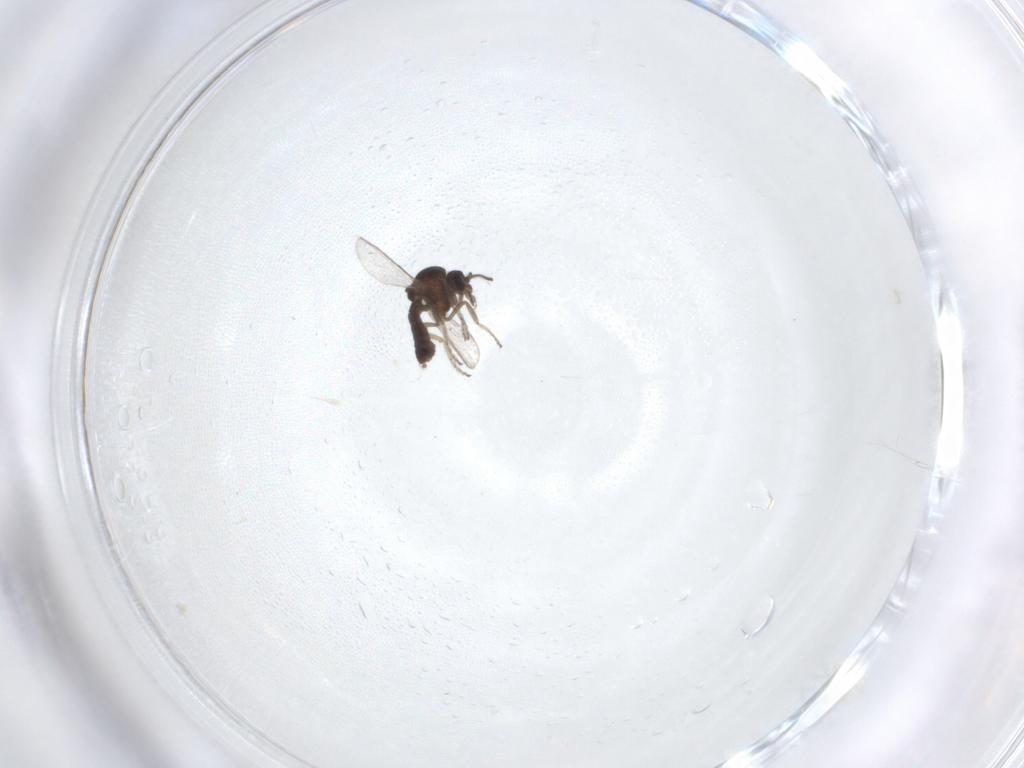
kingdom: Animalia
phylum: Arthropoda
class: Insecta
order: Diptera
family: Ceratopogonidae
